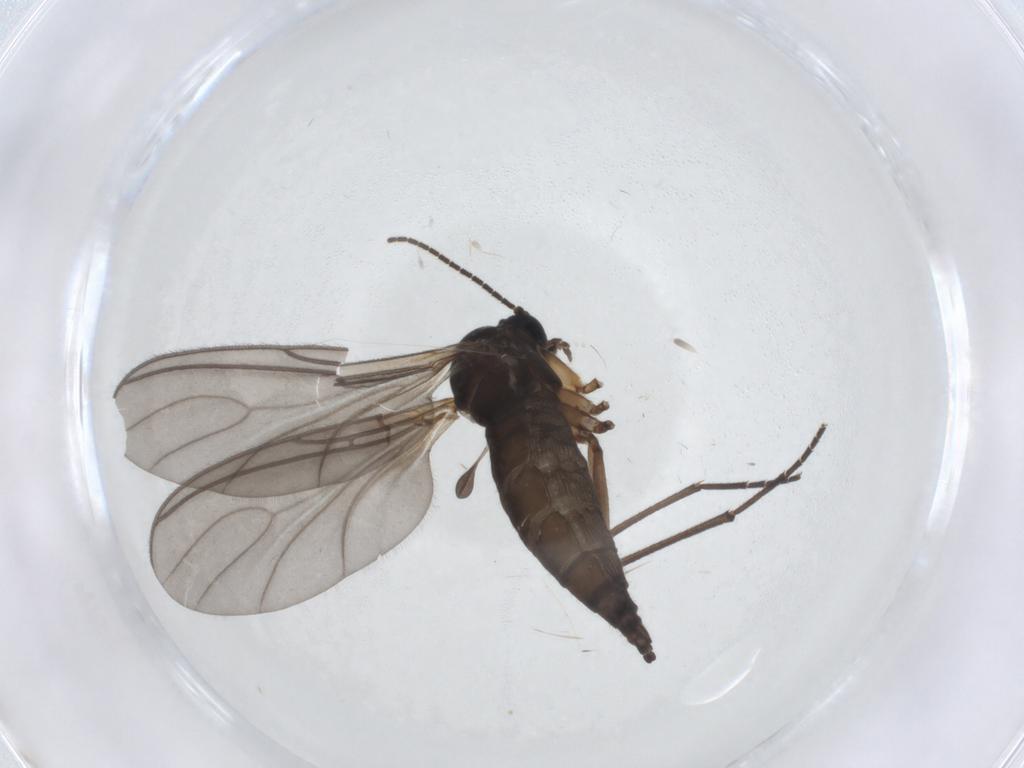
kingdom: Animalia
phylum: Arthropoda
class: Insecta
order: Diptera
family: Sciaridae
